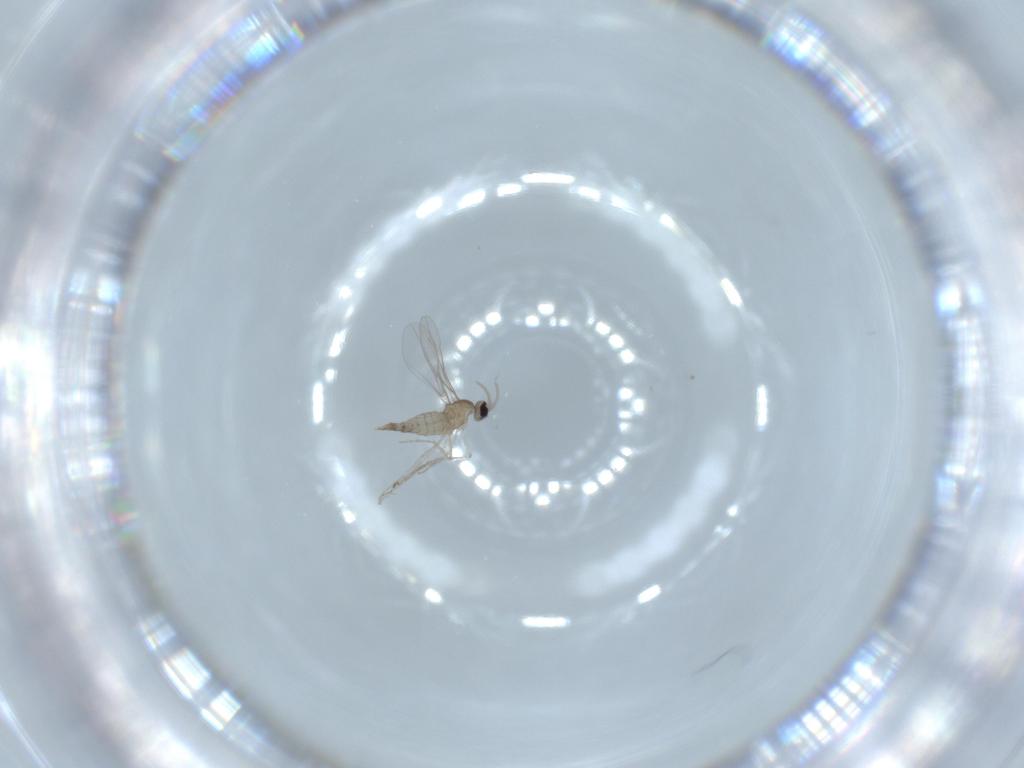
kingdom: Animalia
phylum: Arthropoda
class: Insecta
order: Diptera
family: Cecidomyiidae
